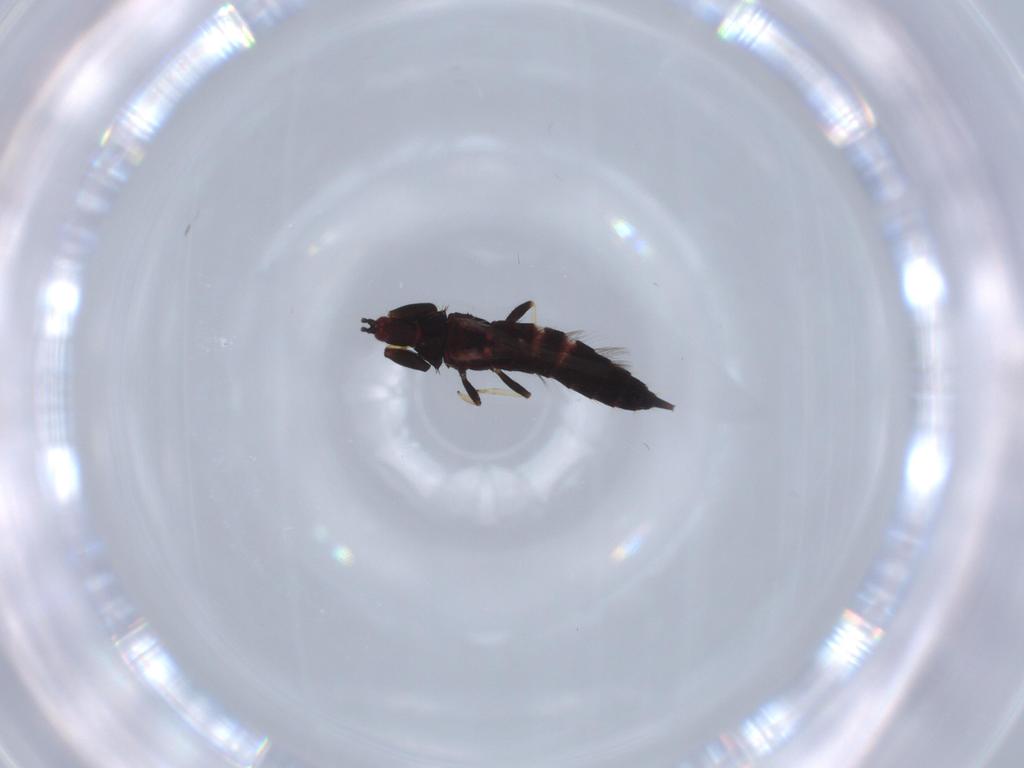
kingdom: Animalia
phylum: Arthropoda
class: Insecta
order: Thysanoptera
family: Phlaeothripidae
